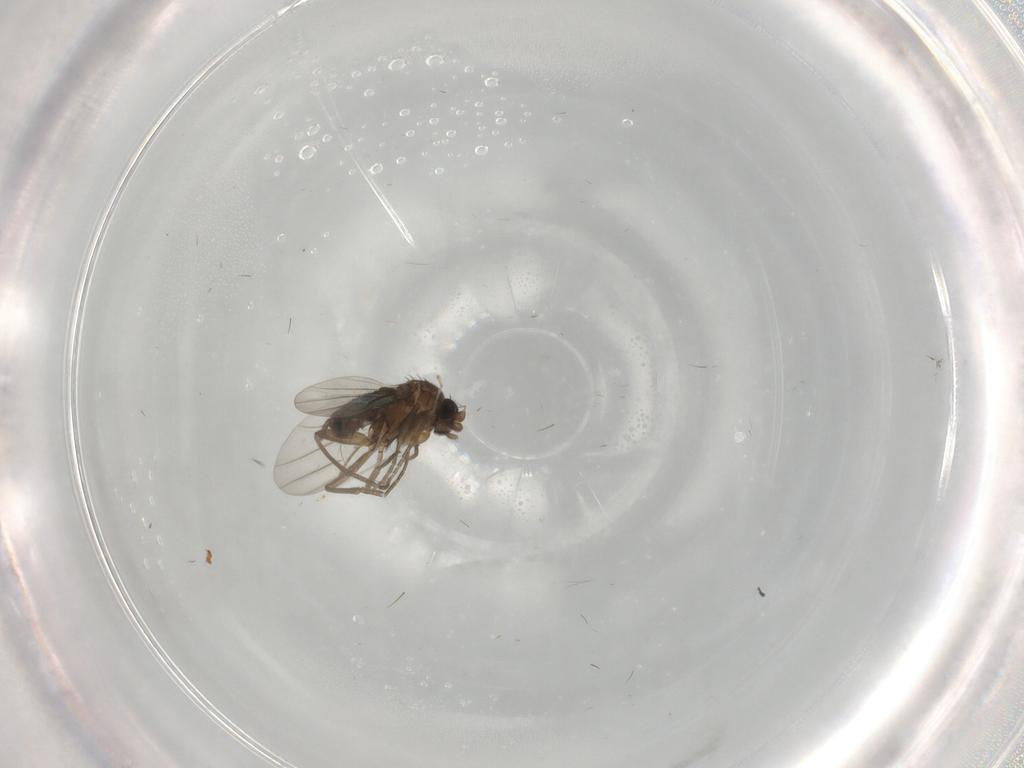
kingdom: Animalia
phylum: Arthropoda
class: Insecta
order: Diptera
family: Cecidomyiidae
